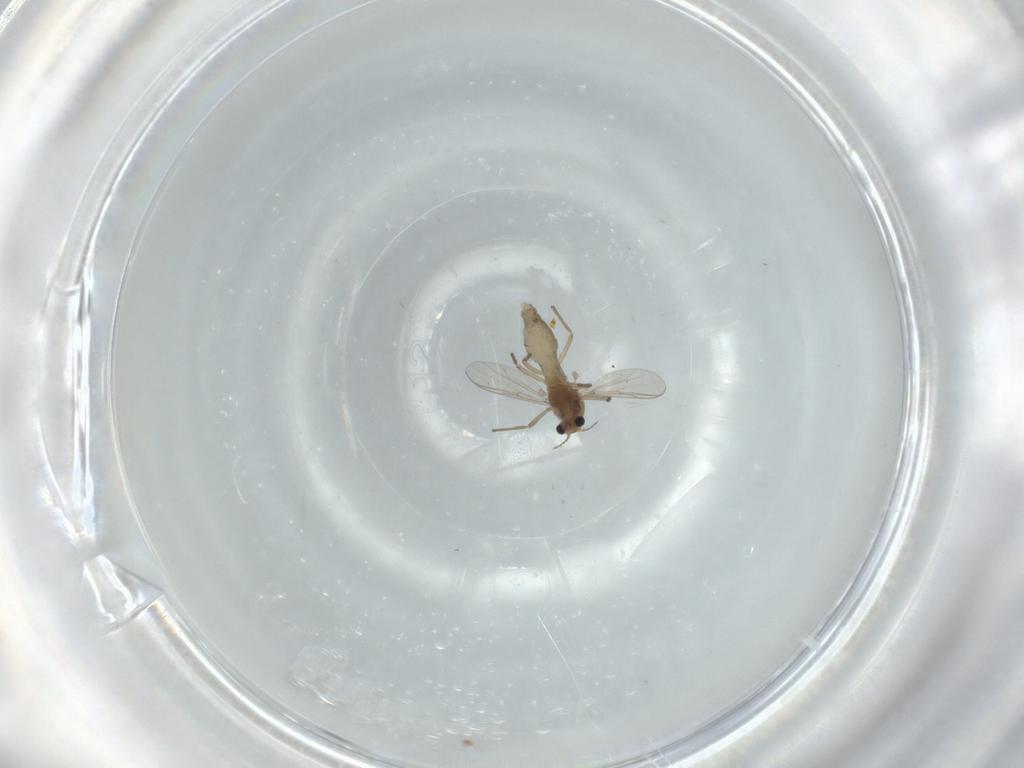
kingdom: Animalia
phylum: Arthropoda
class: Insecta
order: Diptera
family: Chironomidae
